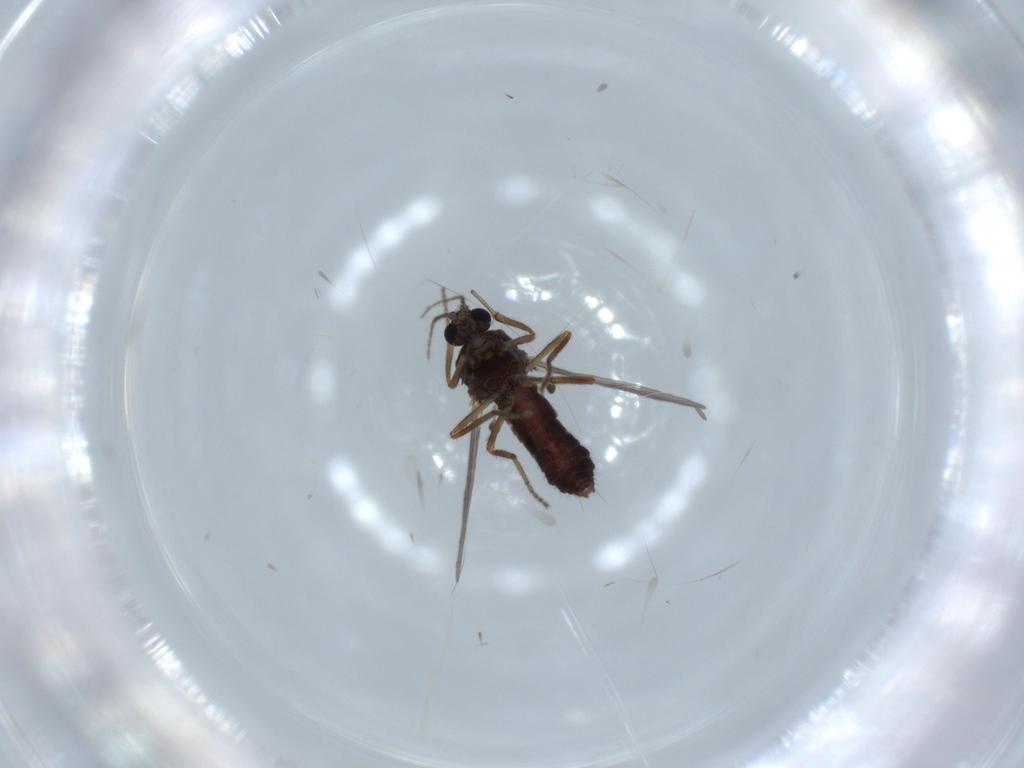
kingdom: Animalia
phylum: Arthropoda
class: Insecta
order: Diptera
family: Ceratopogonidae
